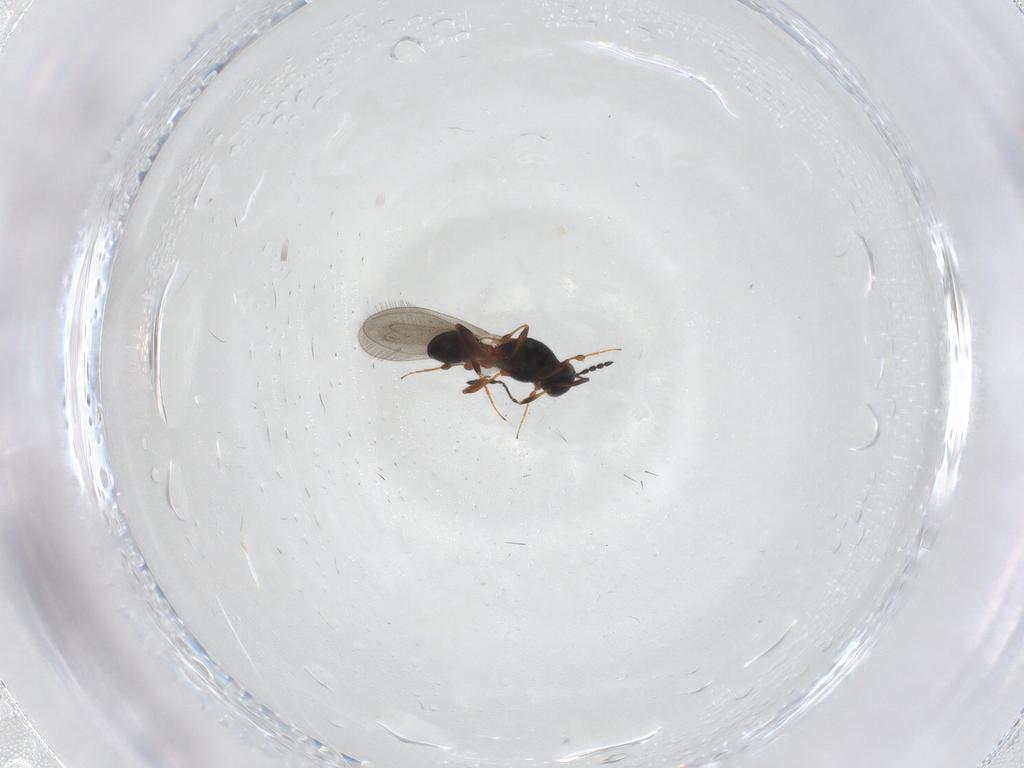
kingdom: Animalia
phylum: Arthropoda
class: Insecta
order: Hymenoptera
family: Platygastridae
